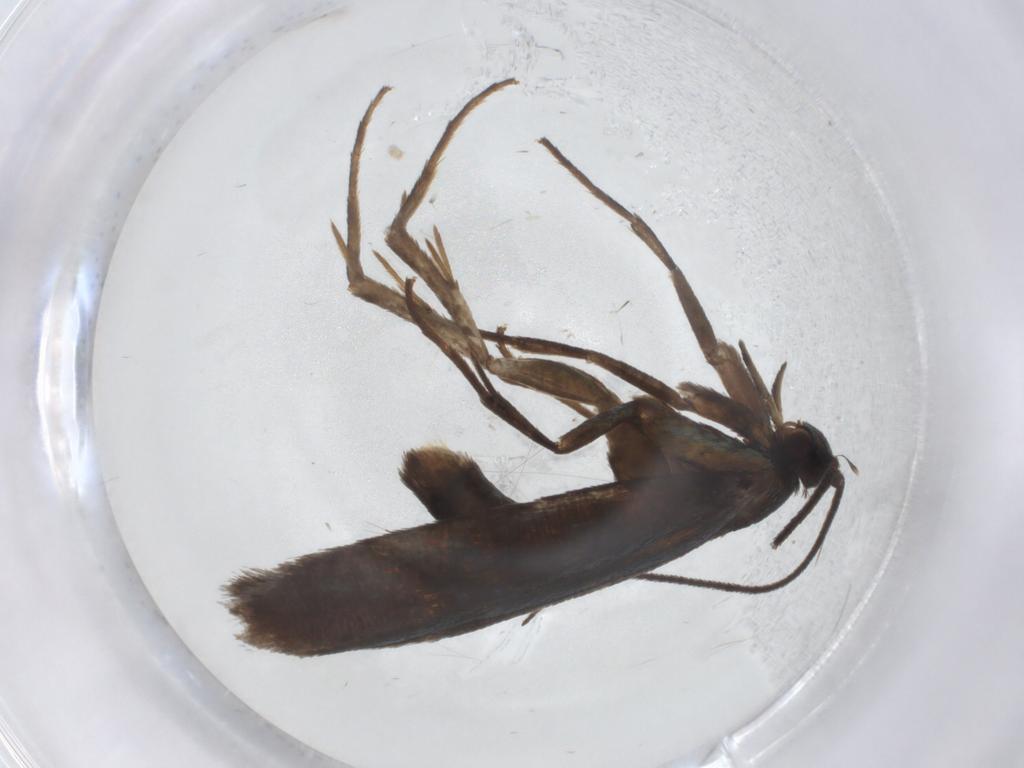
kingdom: Animalia
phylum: Arthropoda
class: Insecta
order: Lepidoptera
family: Argyresthiidae
